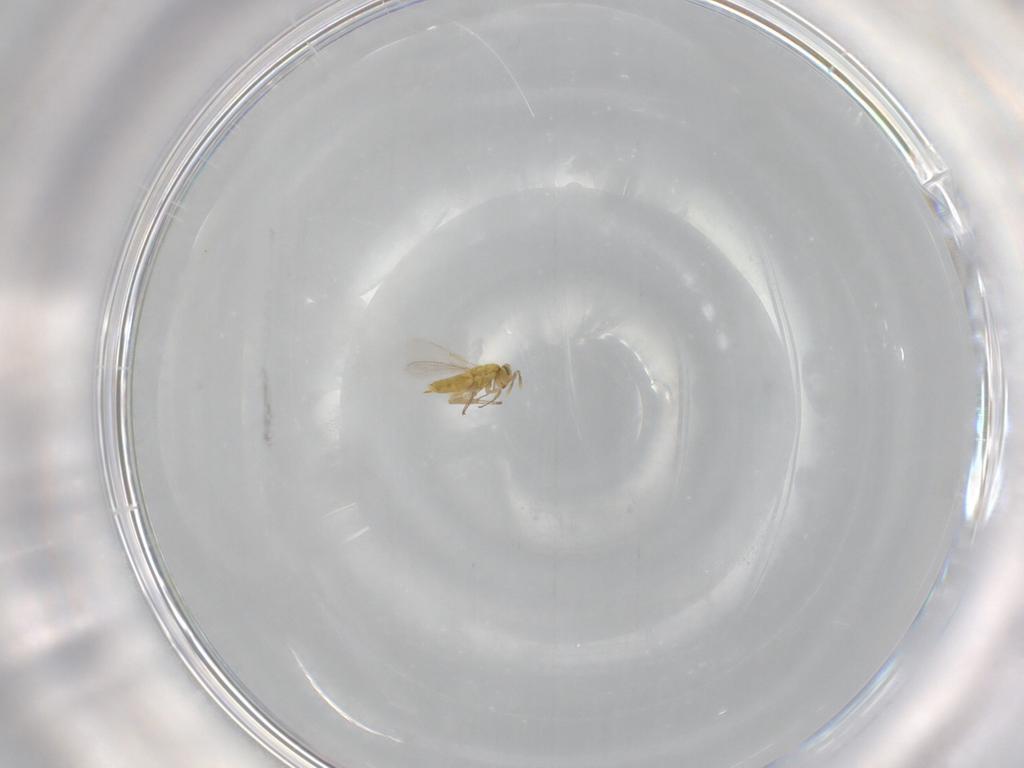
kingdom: Animalia
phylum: Arthropoda
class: Insecta
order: Hymenoptera
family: Aphelinidae
